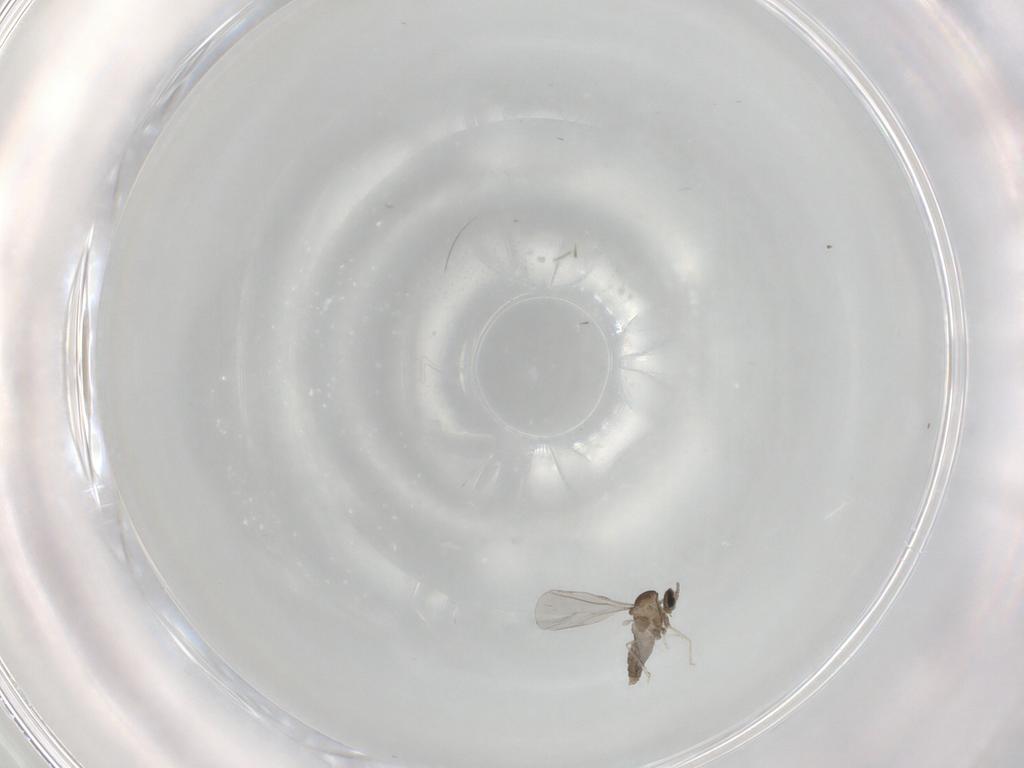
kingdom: Animalia
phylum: Arthropoda
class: Insecta
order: Diptera
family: Cecidomyiidae
